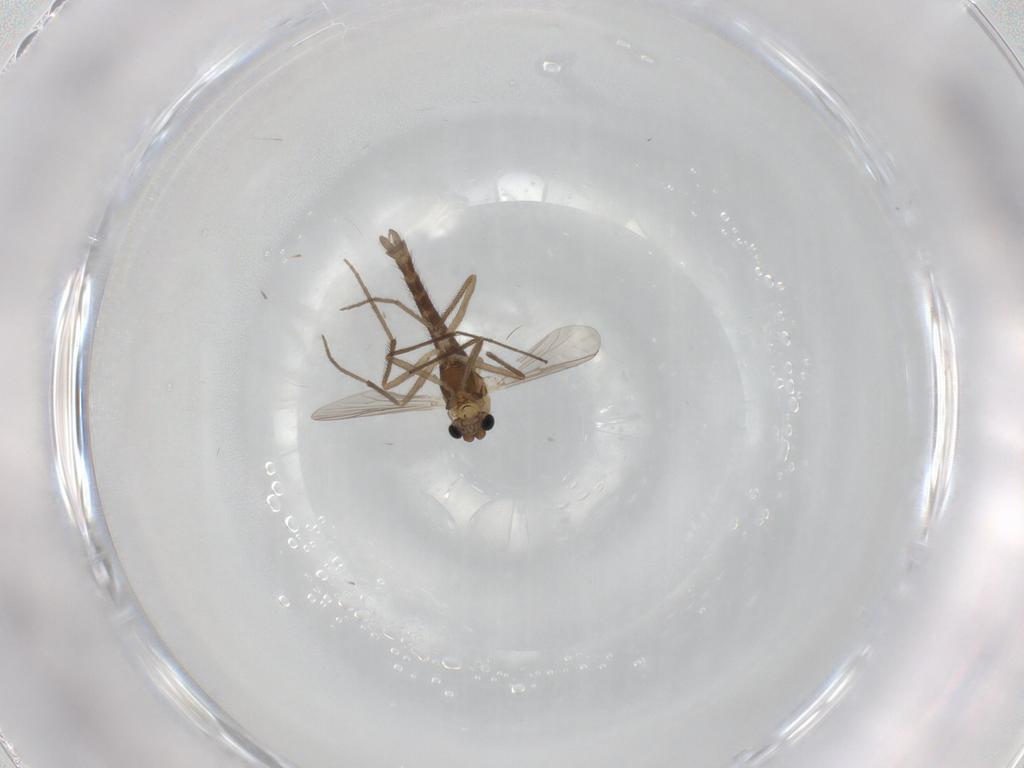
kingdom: Animalia
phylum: Arthropoda
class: Insecta
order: Diptera
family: Chironomidae
